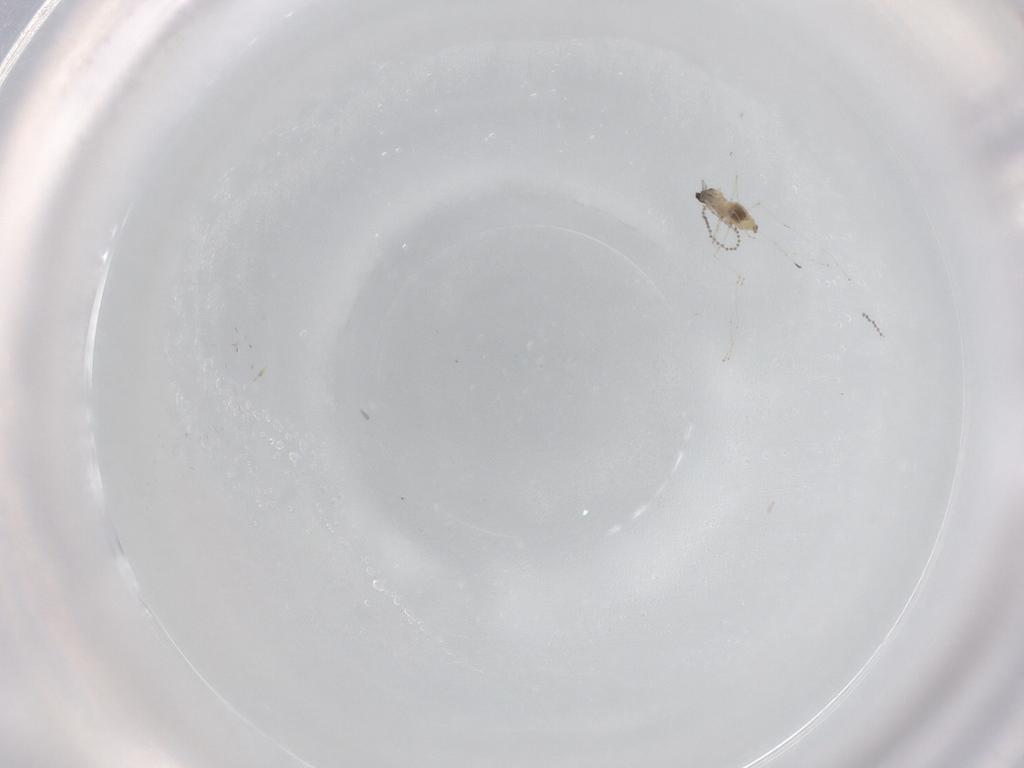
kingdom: Animalia
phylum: Arthropoda
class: Insecta
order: Diptera
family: Cecidomyiidae
